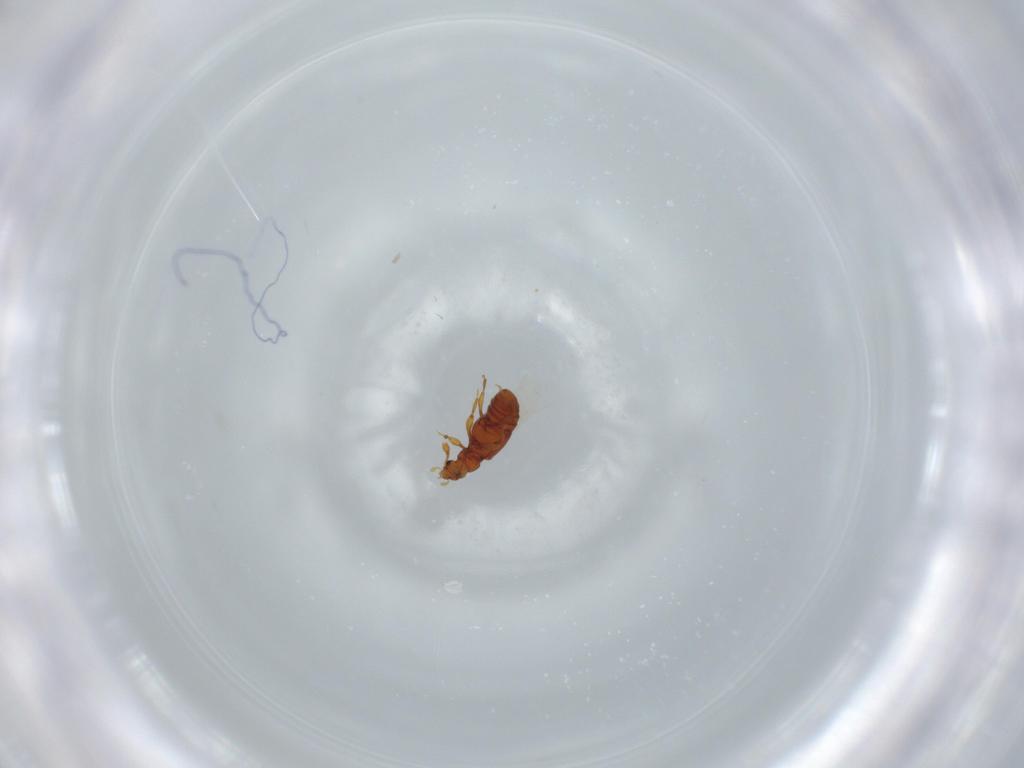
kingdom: Animalia
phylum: Arthropoda
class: Insecta
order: Coleoptera
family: Staphylinidae
